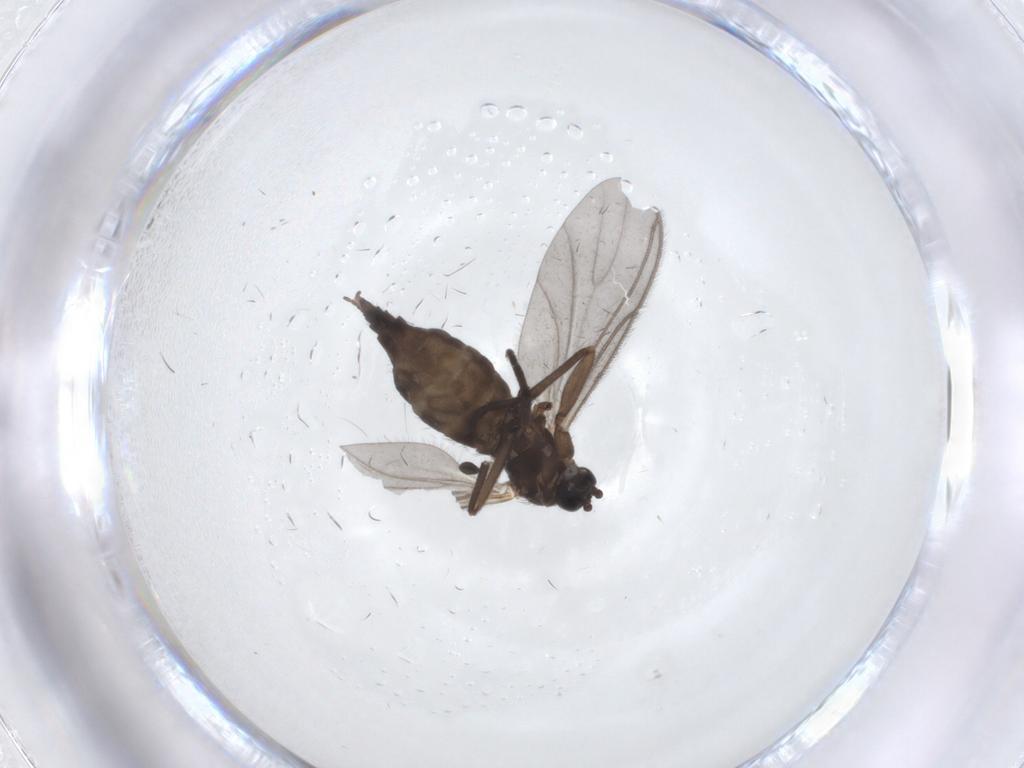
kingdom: Animalia
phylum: Arthropoda
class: Insecta
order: Diptera
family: Sciaridae
